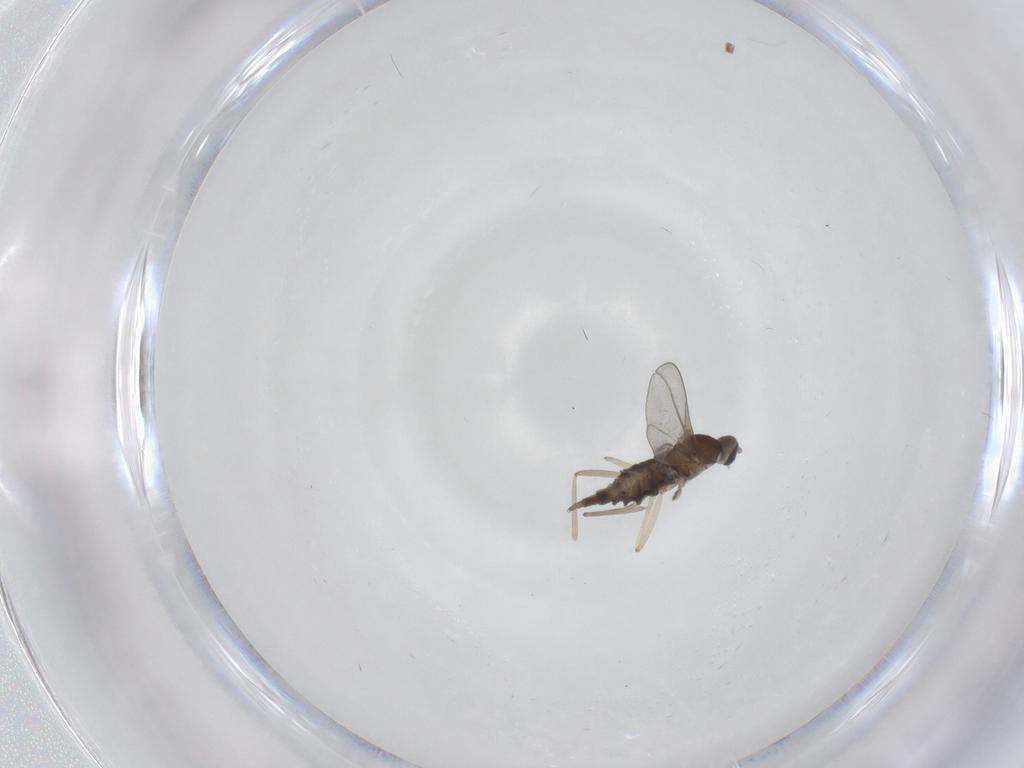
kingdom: Animalia
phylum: Arthropoda
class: Insecta
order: Diptera
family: Cecidomyiidae
